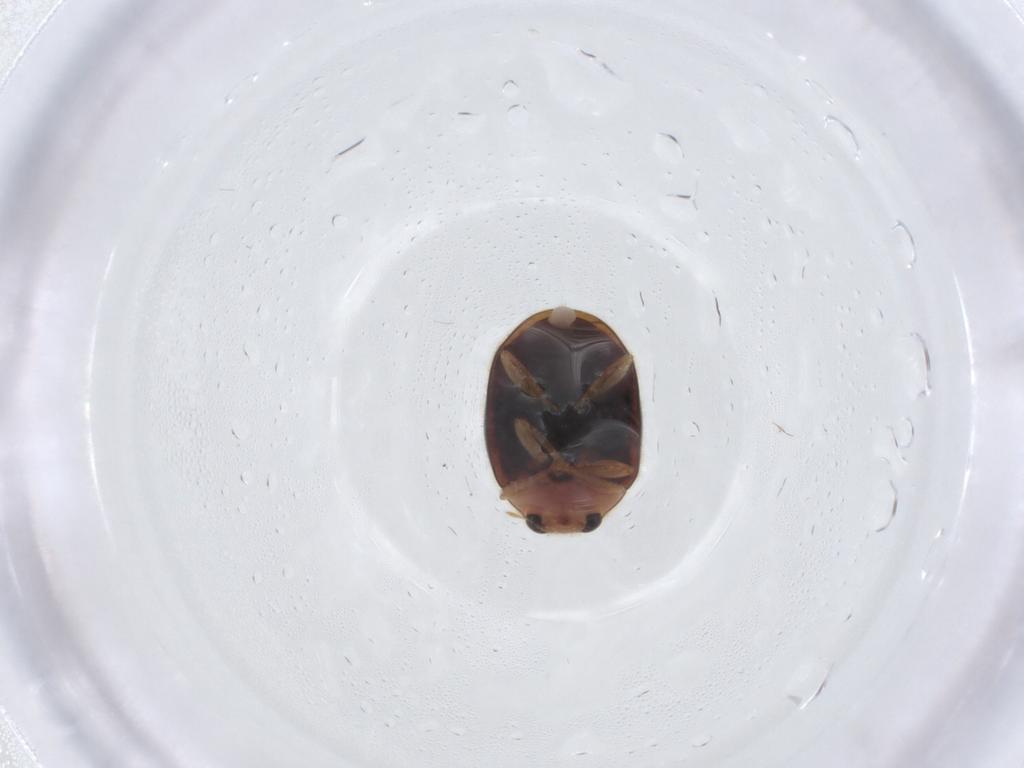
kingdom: Animalia
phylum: Arthropoda
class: Insecta
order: Coleoptera
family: Coccinellidae
